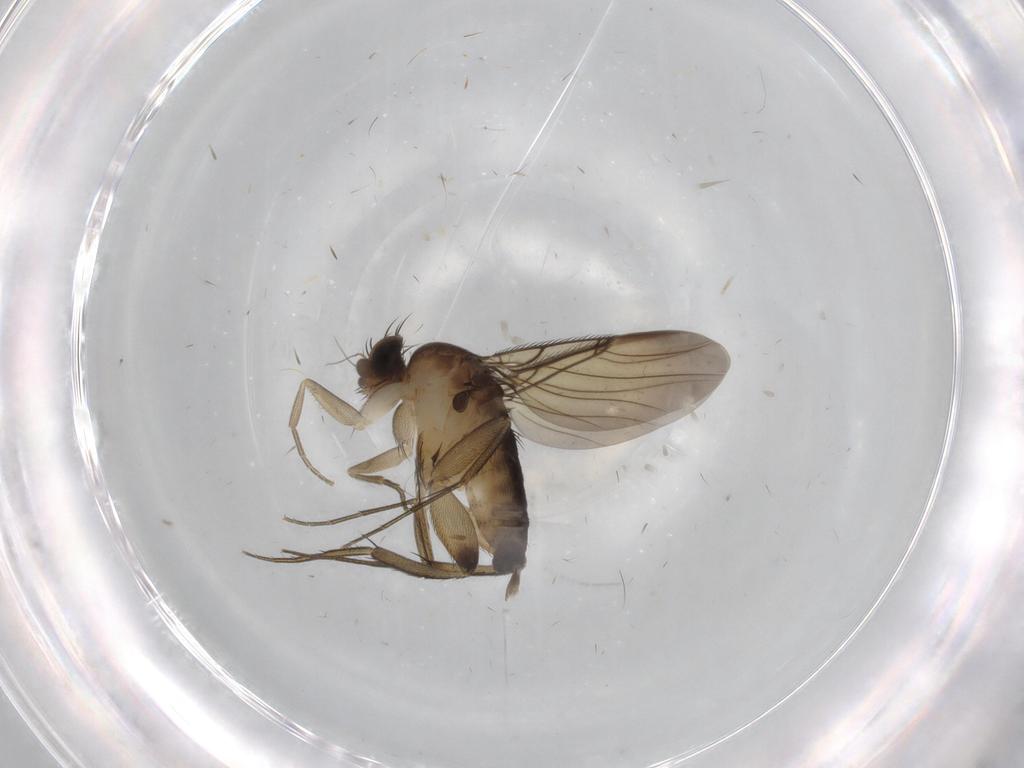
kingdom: Animalia
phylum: Arthropoda
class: Insecta
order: Diptera
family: Phoridae
